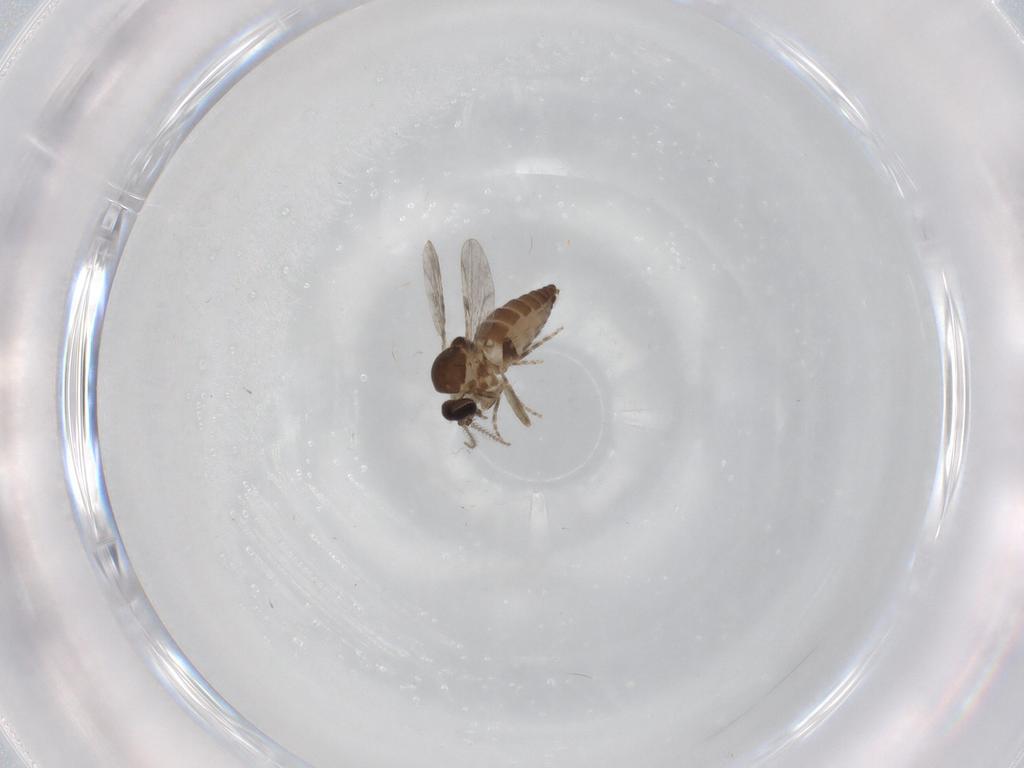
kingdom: Animalia
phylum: Arthropoda
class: Insecta
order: Diptera
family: Ceratopogonidae
